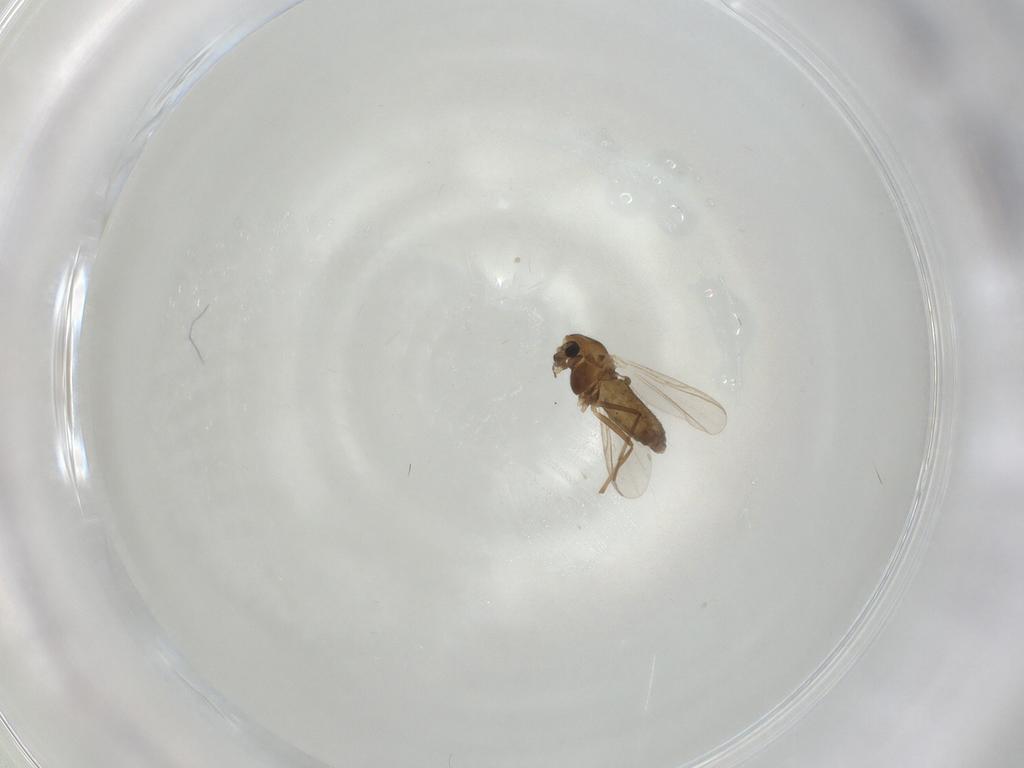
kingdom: Animalia
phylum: Arthropoda
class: Insecta
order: Diptera
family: Chironomidae
